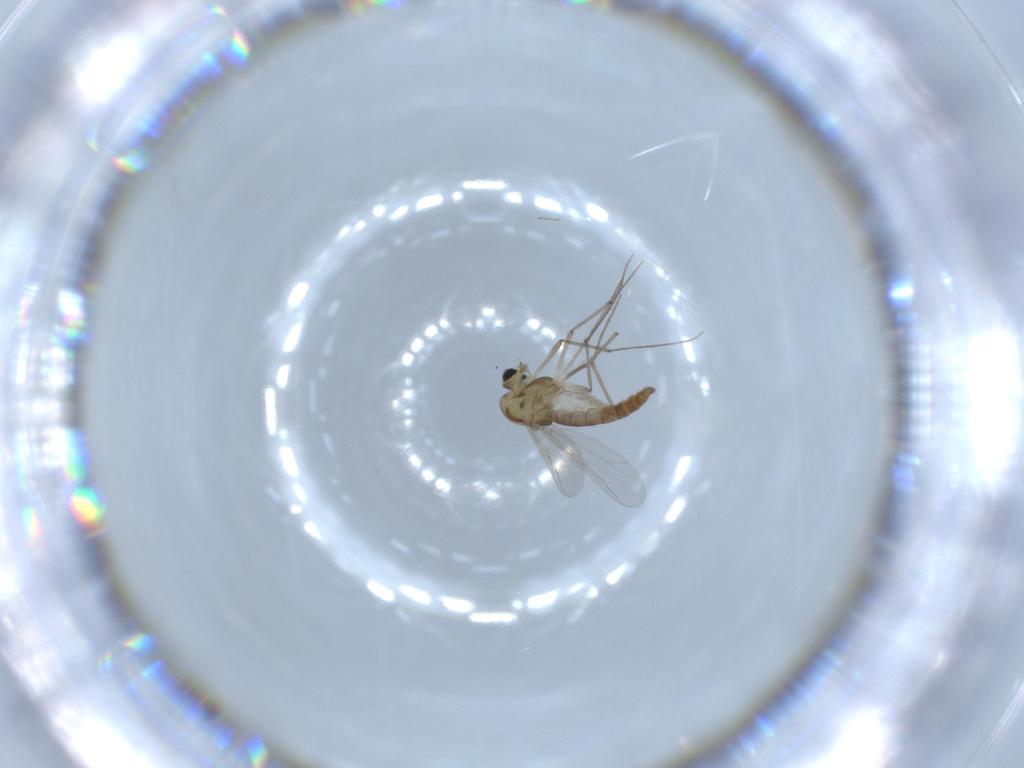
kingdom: Animalia
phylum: Arthropoda
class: Insecta
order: Diptera
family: Chironomidae
